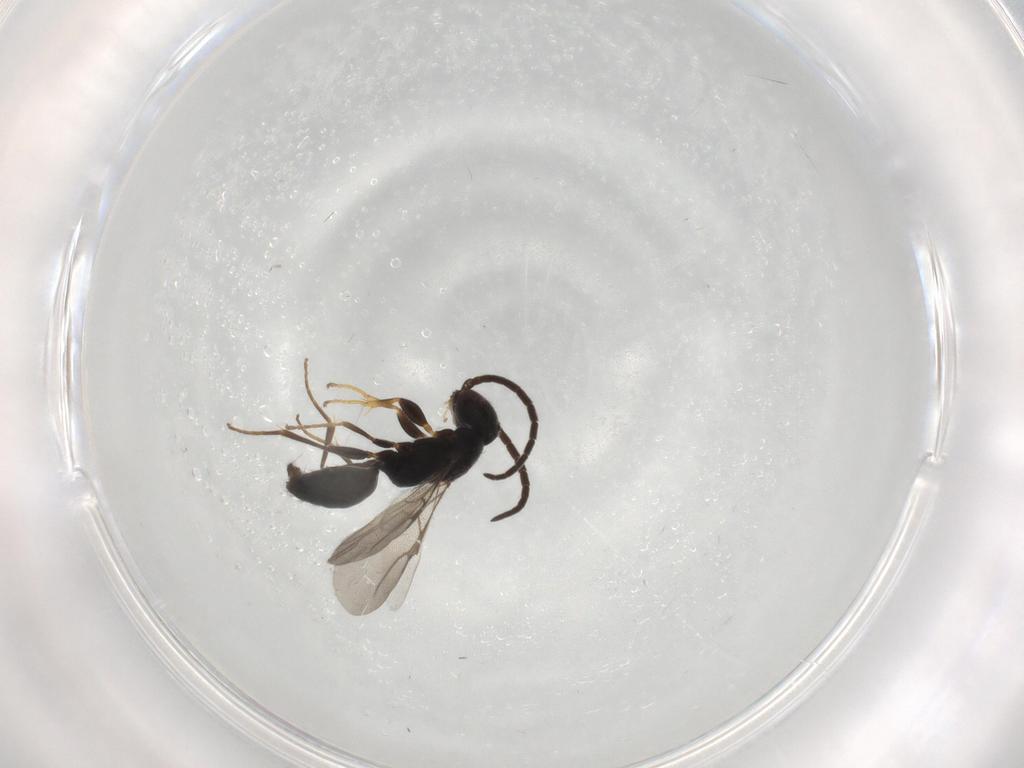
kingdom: Animalia
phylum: Arthropoda
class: Insecta
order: Hymenoptera
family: Bethylidae
